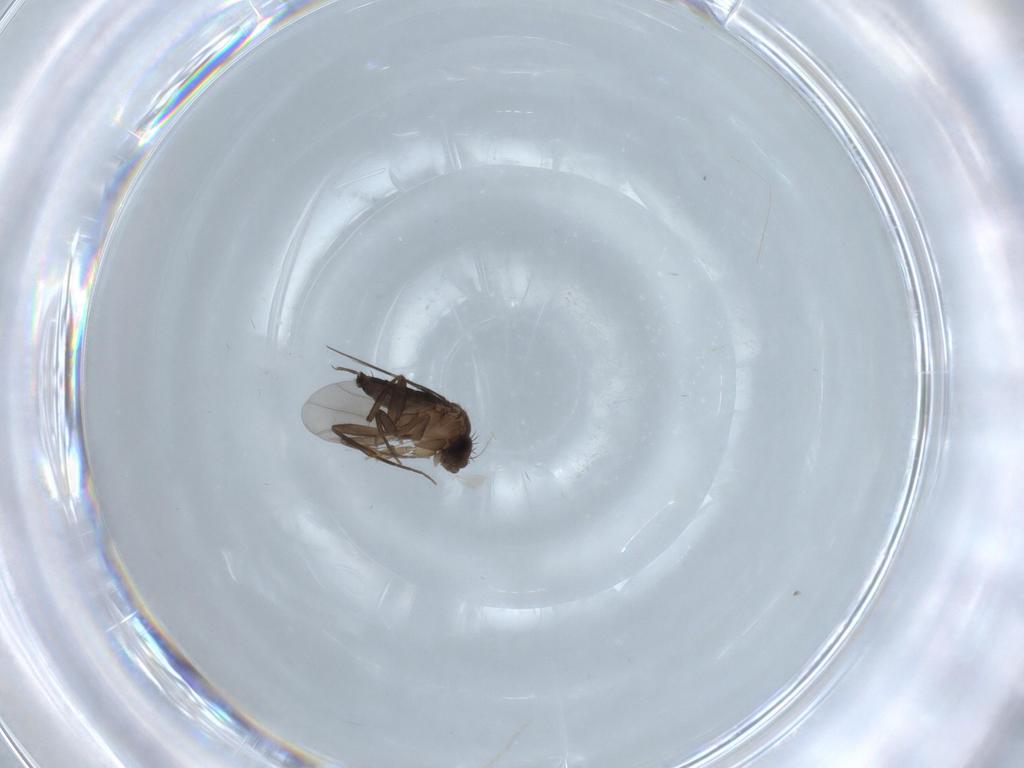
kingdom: Animalia
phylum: Arthropoda
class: Insecta
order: Diptera
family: Phoridae
